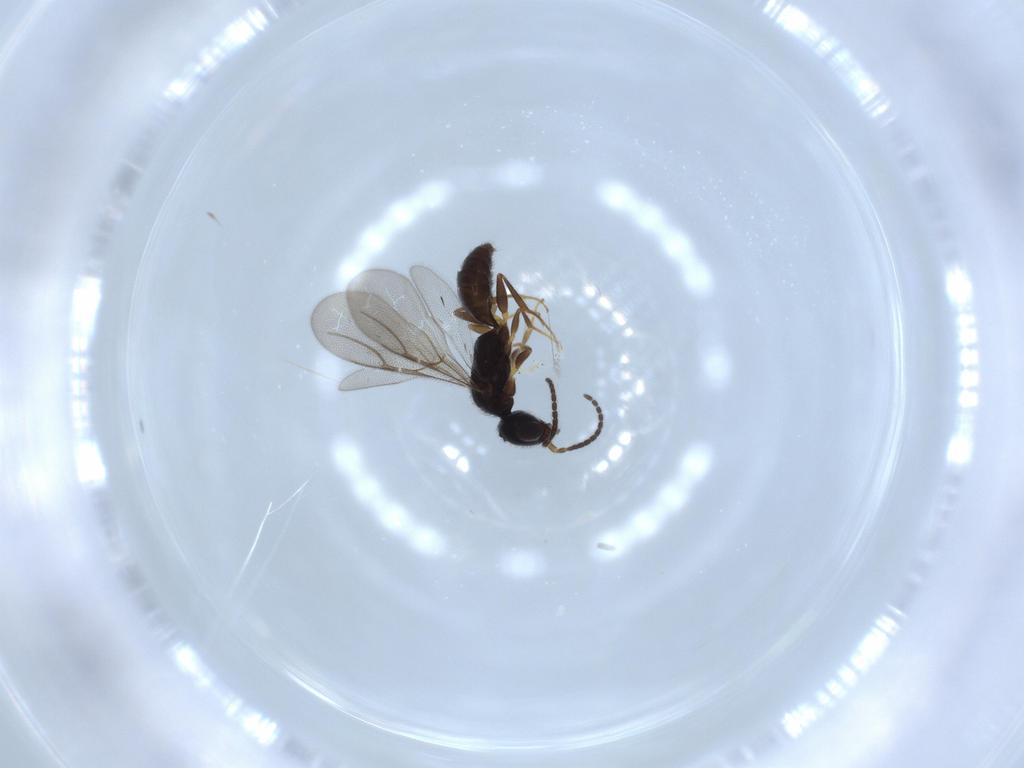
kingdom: Animalia
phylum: Arthropoda
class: Insecta
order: Hymenoptera
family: Bethylidae
